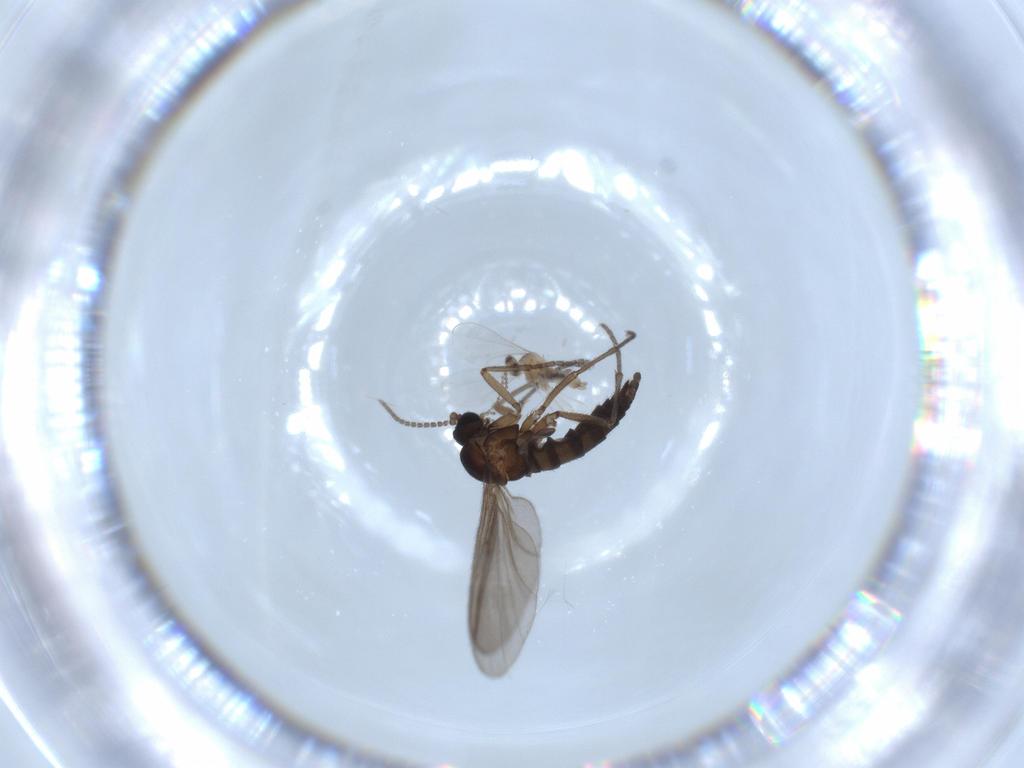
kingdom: Animalia
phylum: Arthropoda
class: Insecta
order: Diptera
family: Sciaridae
